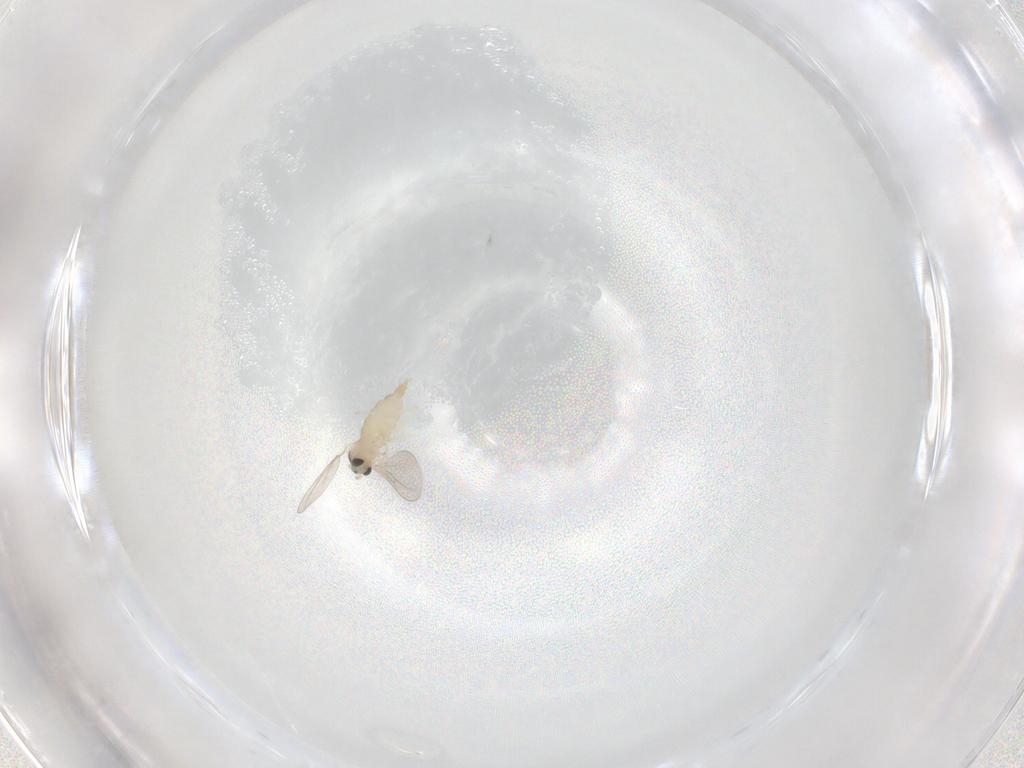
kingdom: Animalia
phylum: Arthropoda
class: Insecta
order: Diptera
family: Cecidomyiidae
